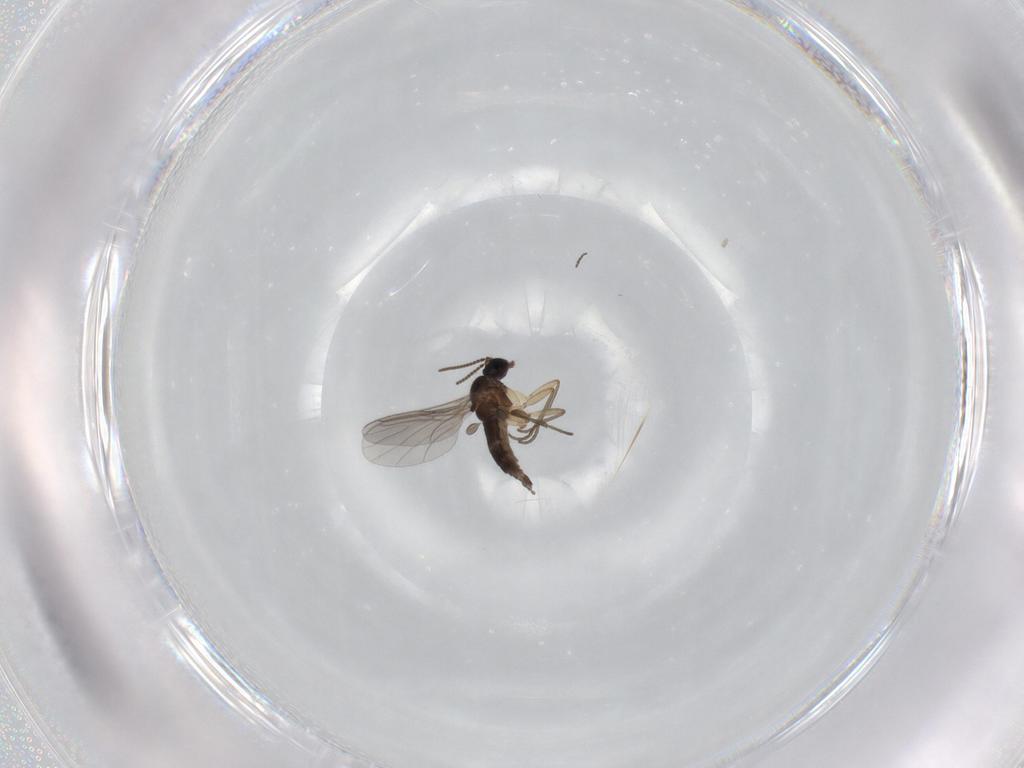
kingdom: Animalia
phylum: Arthropoda
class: Insecta
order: Diptera
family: Sciaridae
